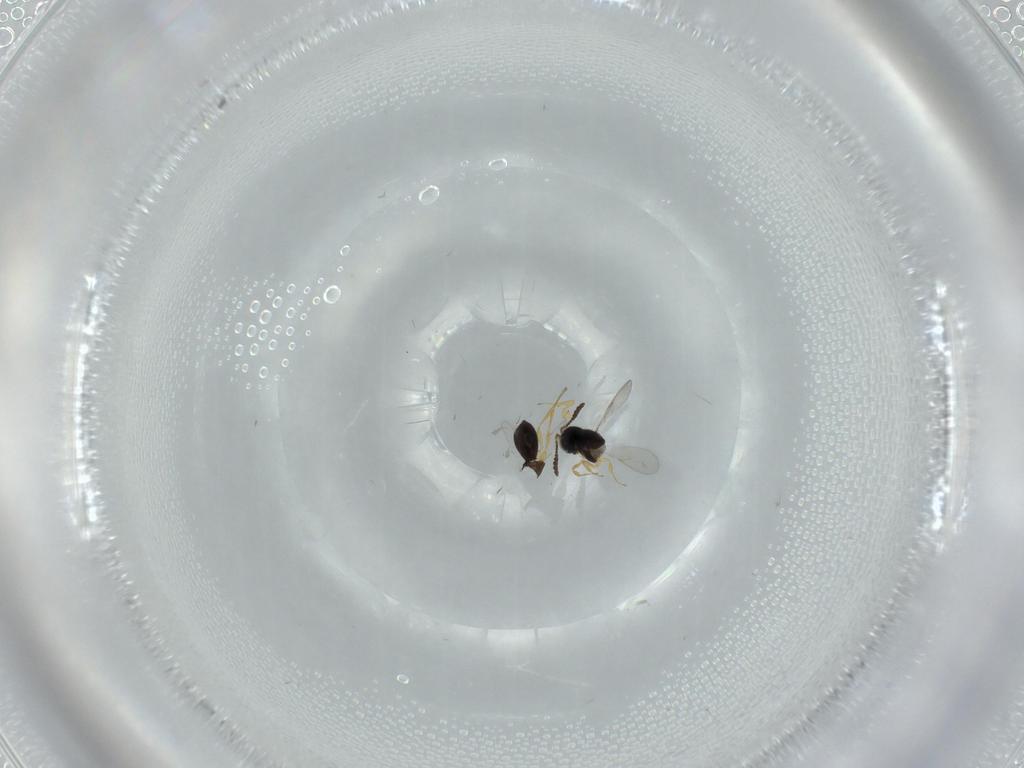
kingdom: Animalia
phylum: Arthropoda
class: Insecta
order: Hymenoptera
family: Scelionidae
